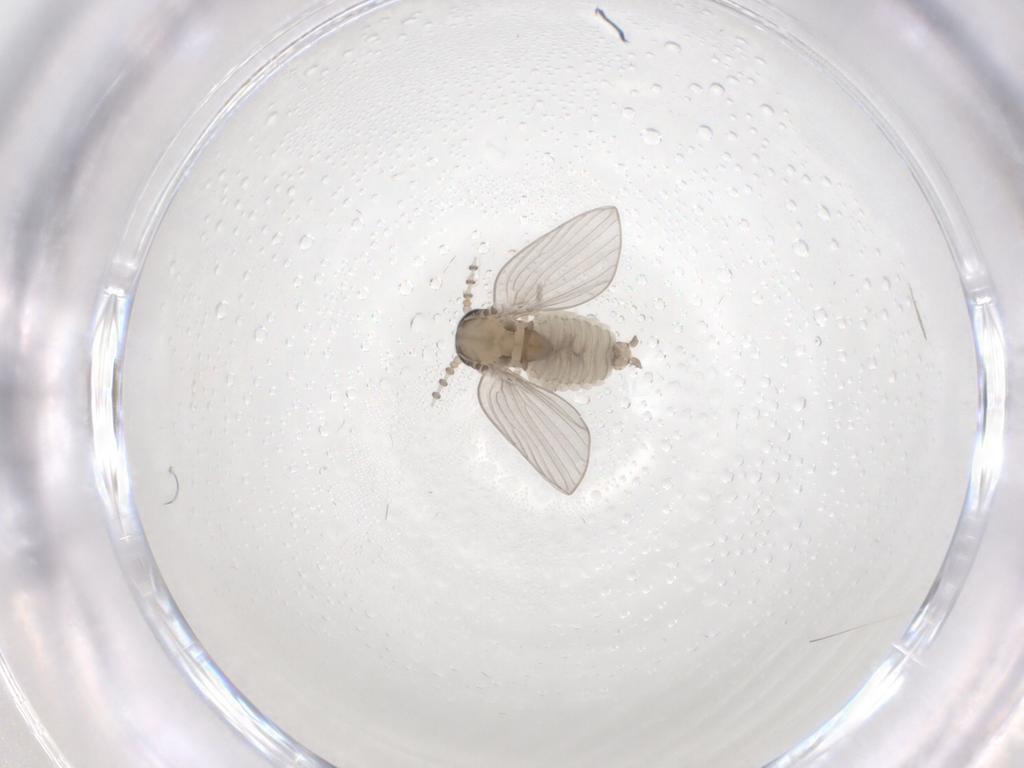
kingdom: Animalia
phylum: Arthropoda
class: Insecta
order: Diptera
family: Psychodidae
